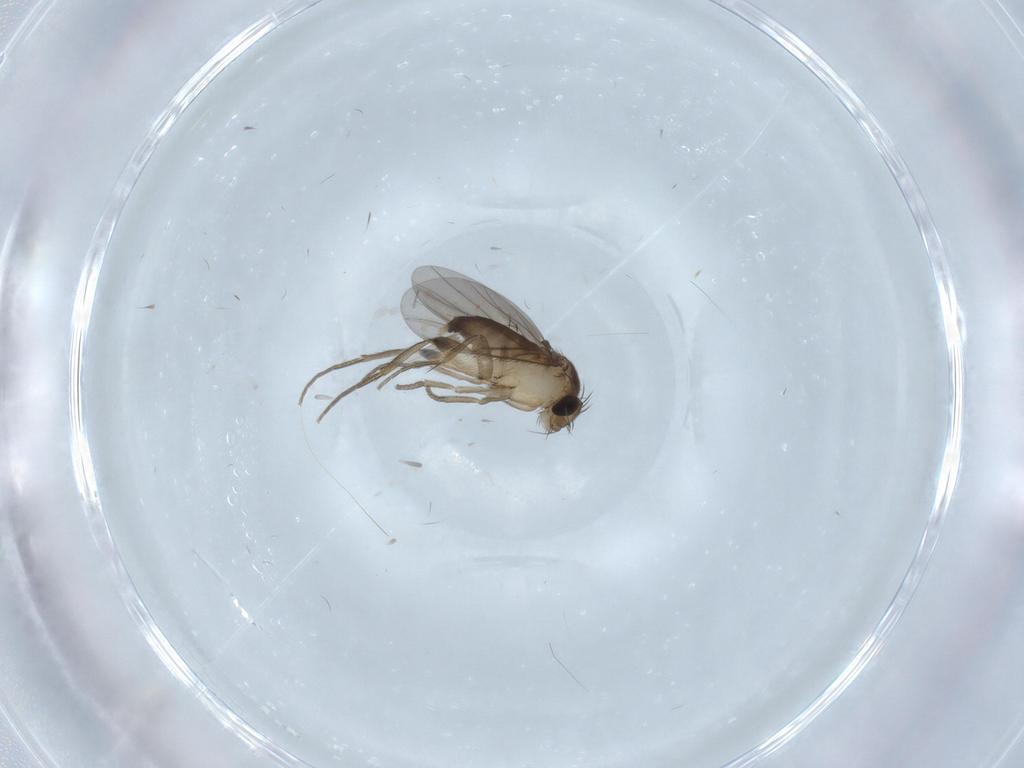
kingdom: Animalia
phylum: Arthropoda
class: Insecta
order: Diptera
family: Phoridae
